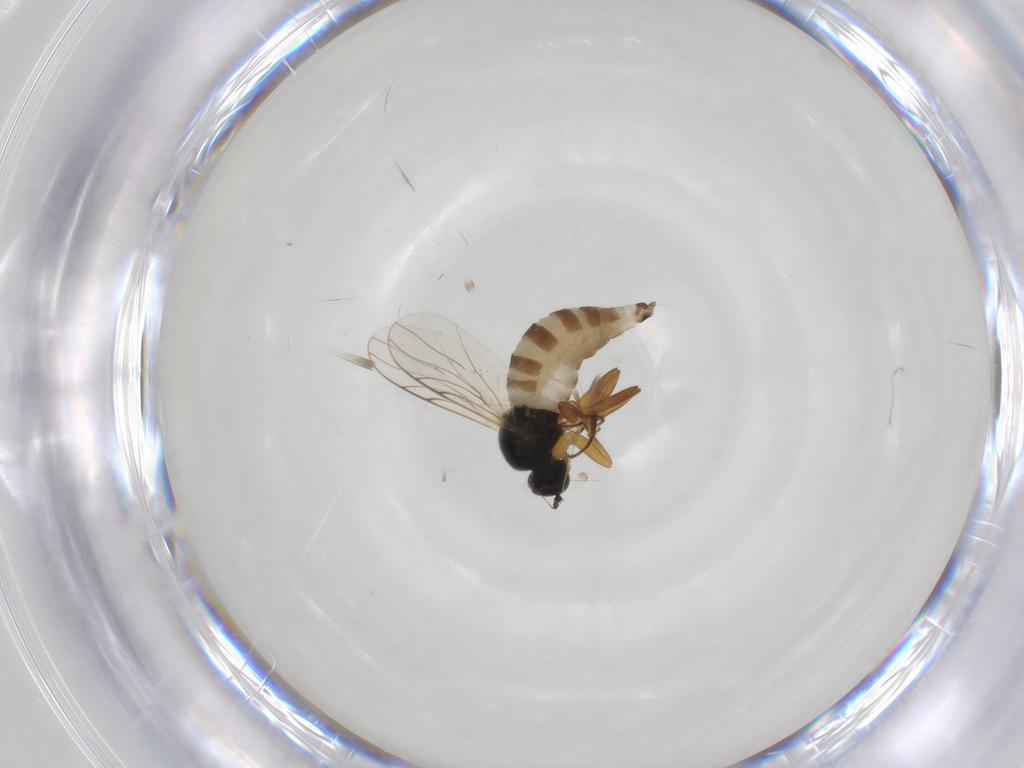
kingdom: Animalia
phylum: Arthropoda
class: Insecta
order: Diptera
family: Hybotidae
